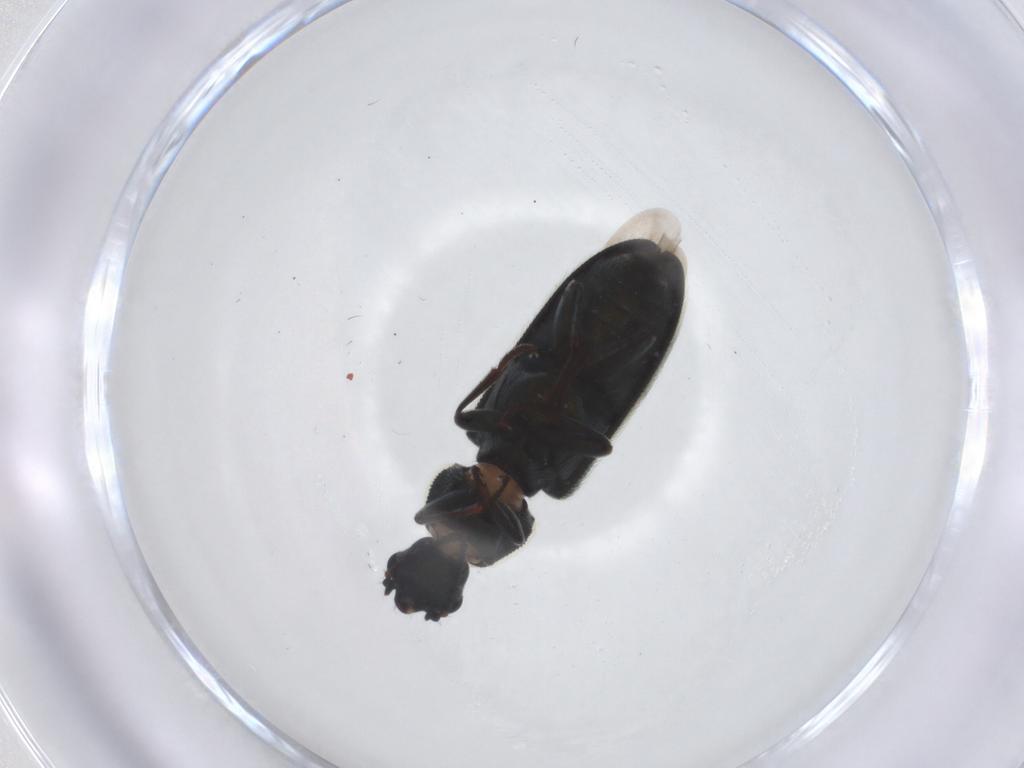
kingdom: Animalia
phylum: Arthropoda
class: Insecta
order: Coleoptera
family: Melyridae
